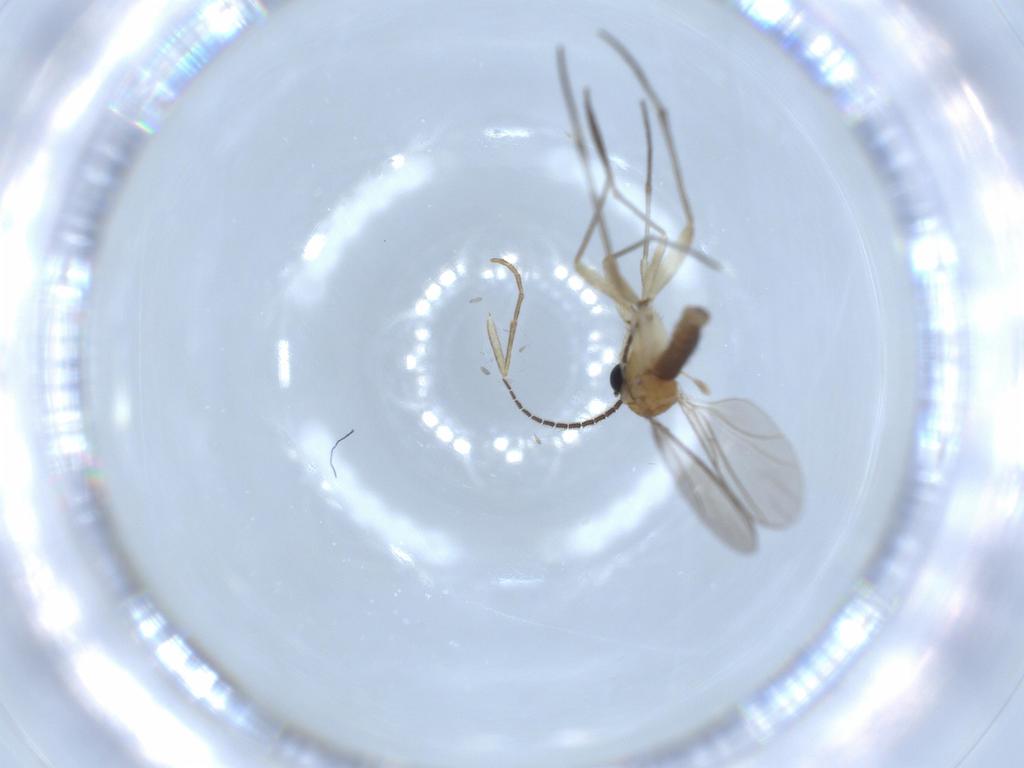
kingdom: Animalia
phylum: Arthropoda
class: Insecta
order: Diptera
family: Sciaridae
